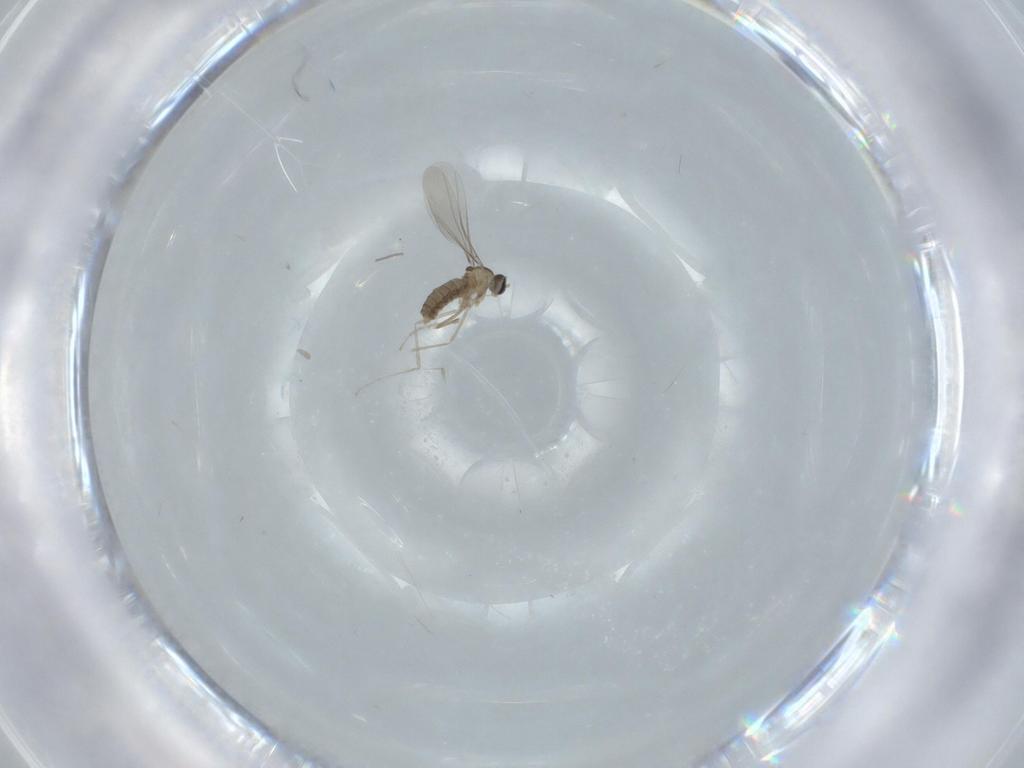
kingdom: Animalia
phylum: Arthropoda
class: Insecta
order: Diptera
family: Cecidomyiidae
